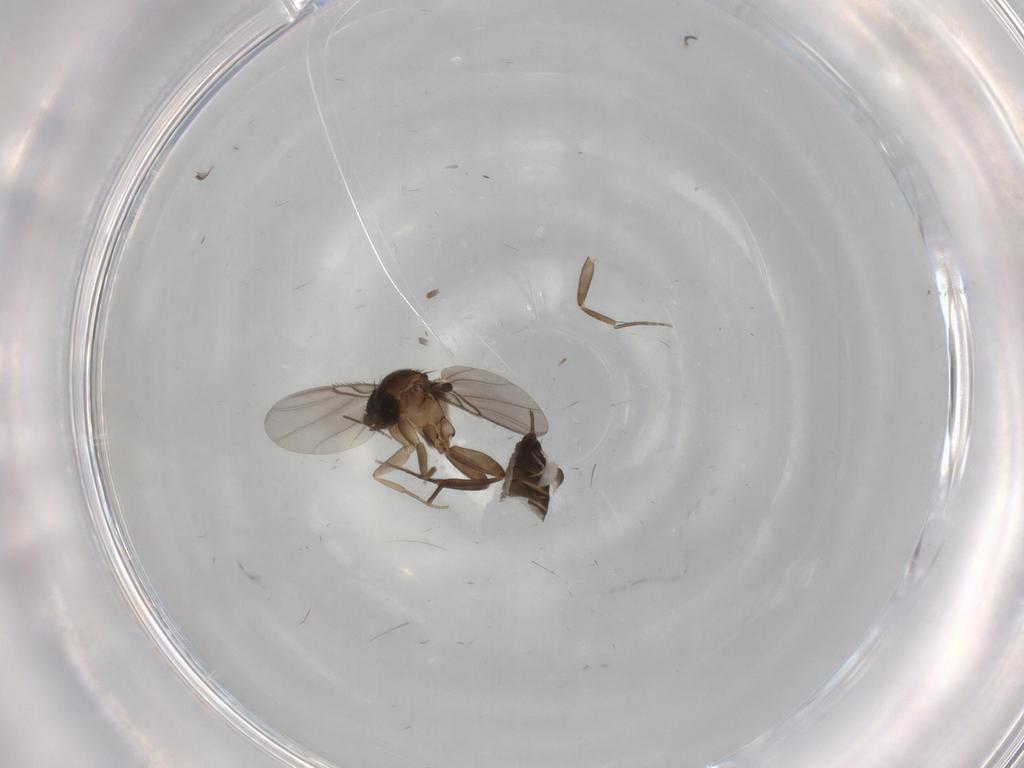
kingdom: Animalia
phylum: Arthropoda
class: Insecta
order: Diptera
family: Phoridae
